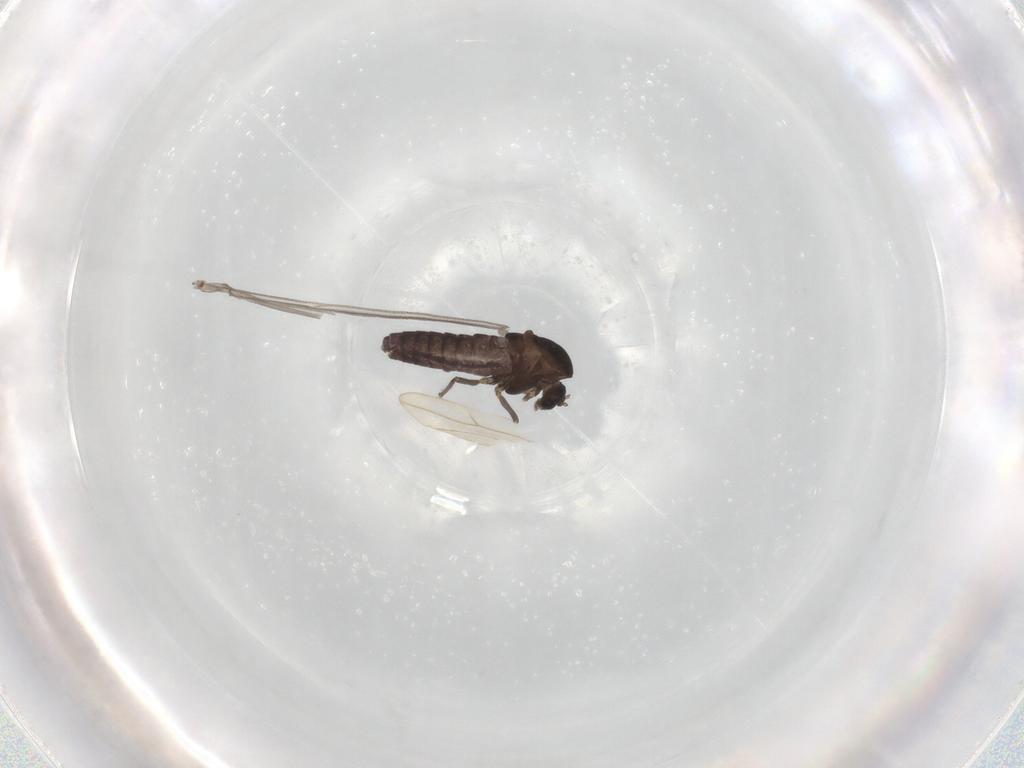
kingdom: Animalia
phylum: Arthropoda
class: Insecta
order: Diptera
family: Cecidomyiidae
